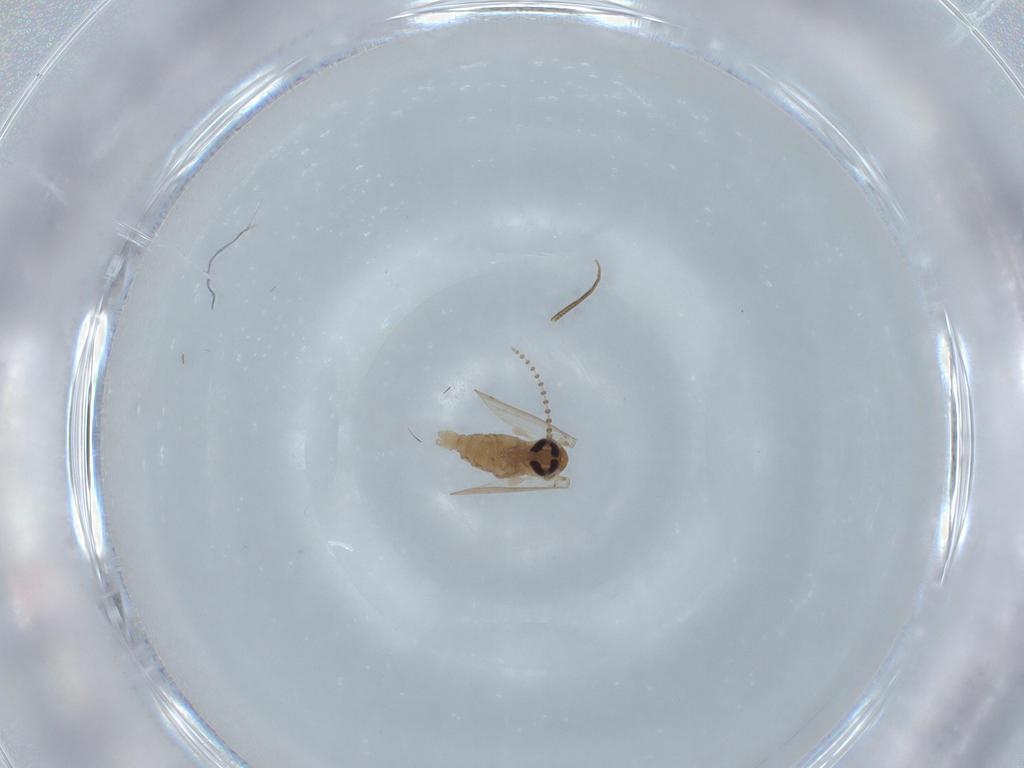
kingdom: Animalia
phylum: Arthropoda
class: Insecta
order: Diptera
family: Psychodidae
